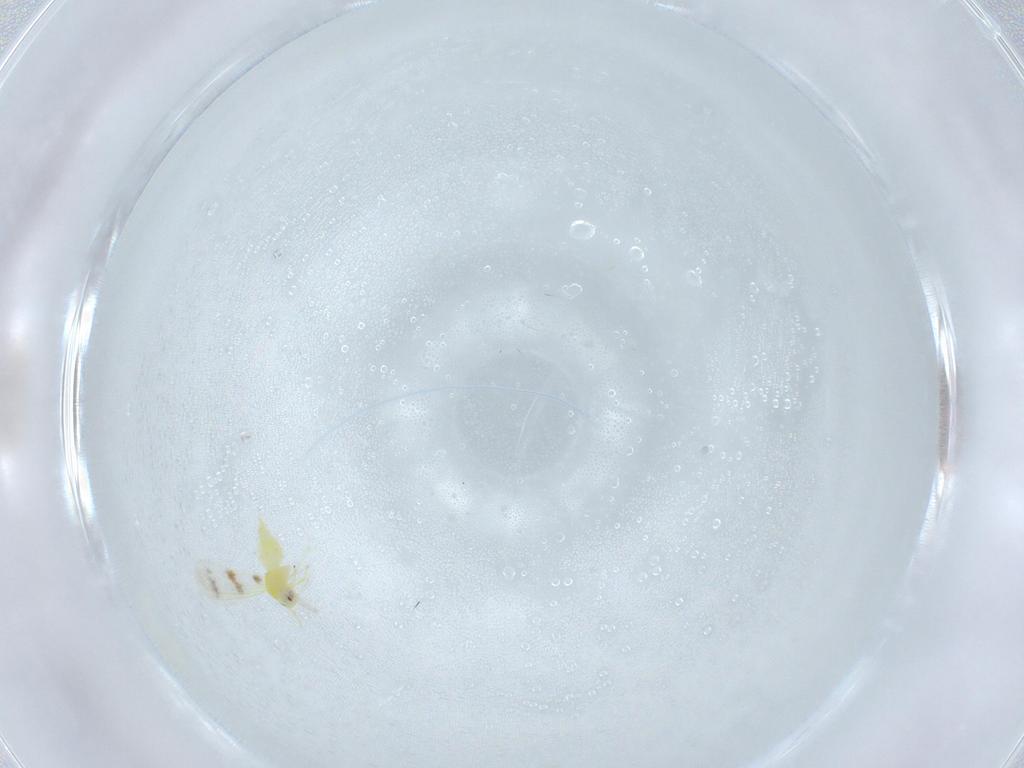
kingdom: Animalia
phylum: Arthropoda
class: Insecta
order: Hemiptera
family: Aleyrodidae
